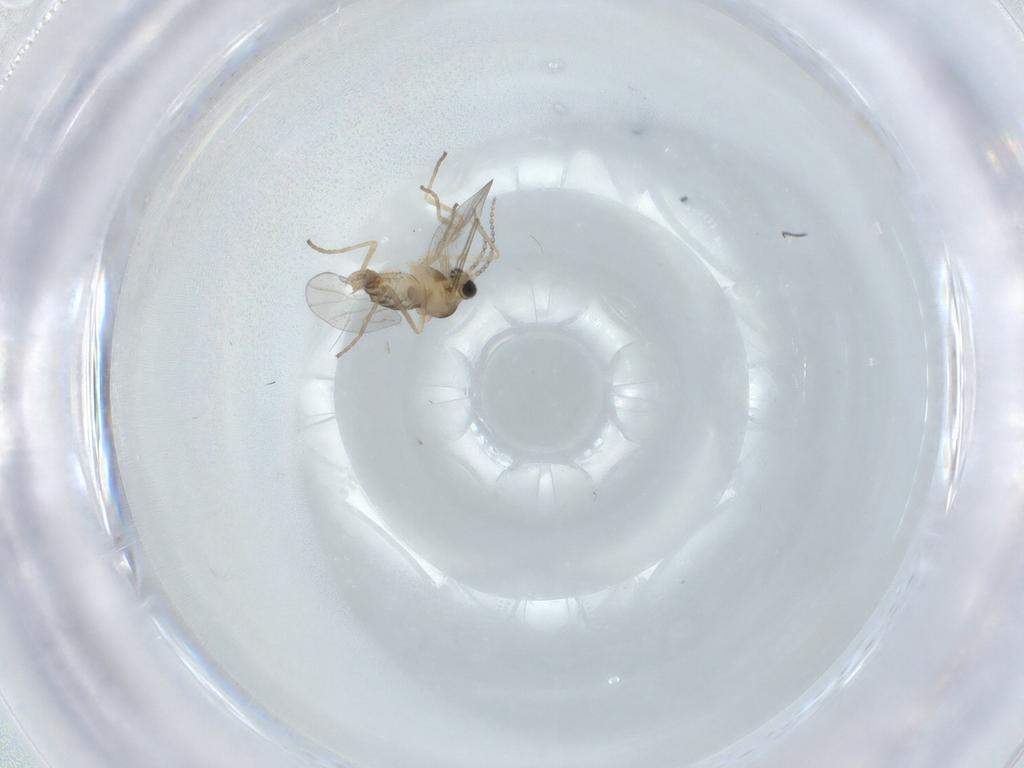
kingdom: Animalia
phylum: Arthropoda
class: Insecta
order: Diptera
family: Cecidomyiidae
